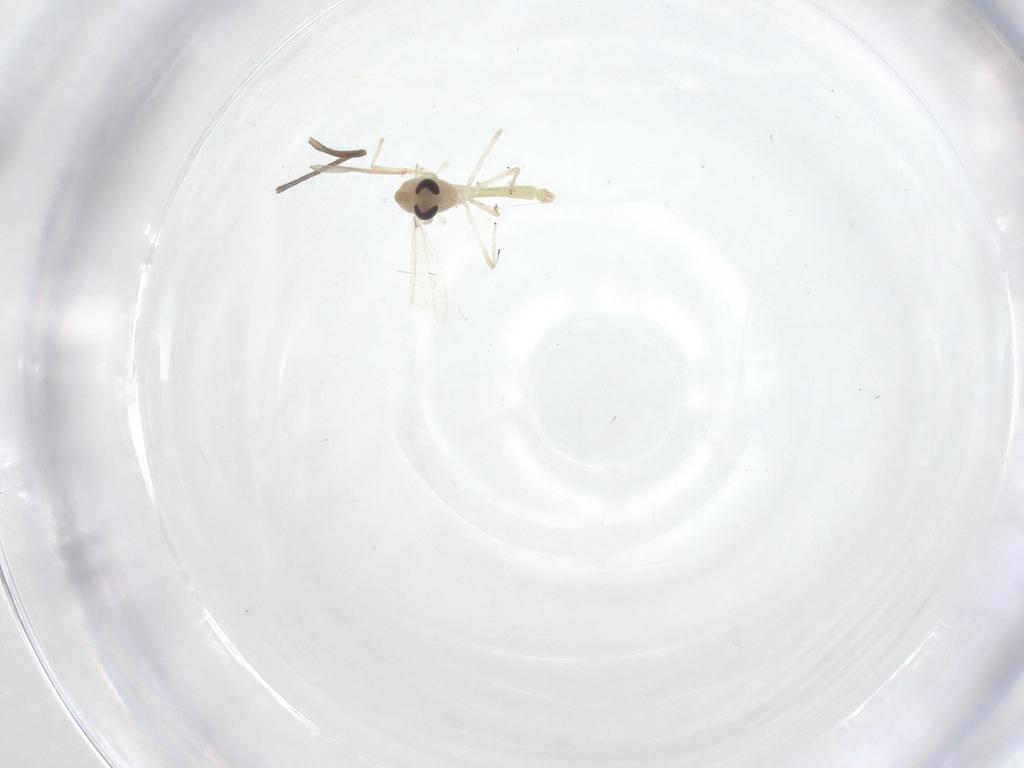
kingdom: Animalia
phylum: Arthropoda
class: Insecta
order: Diptera
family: Chironomidae
